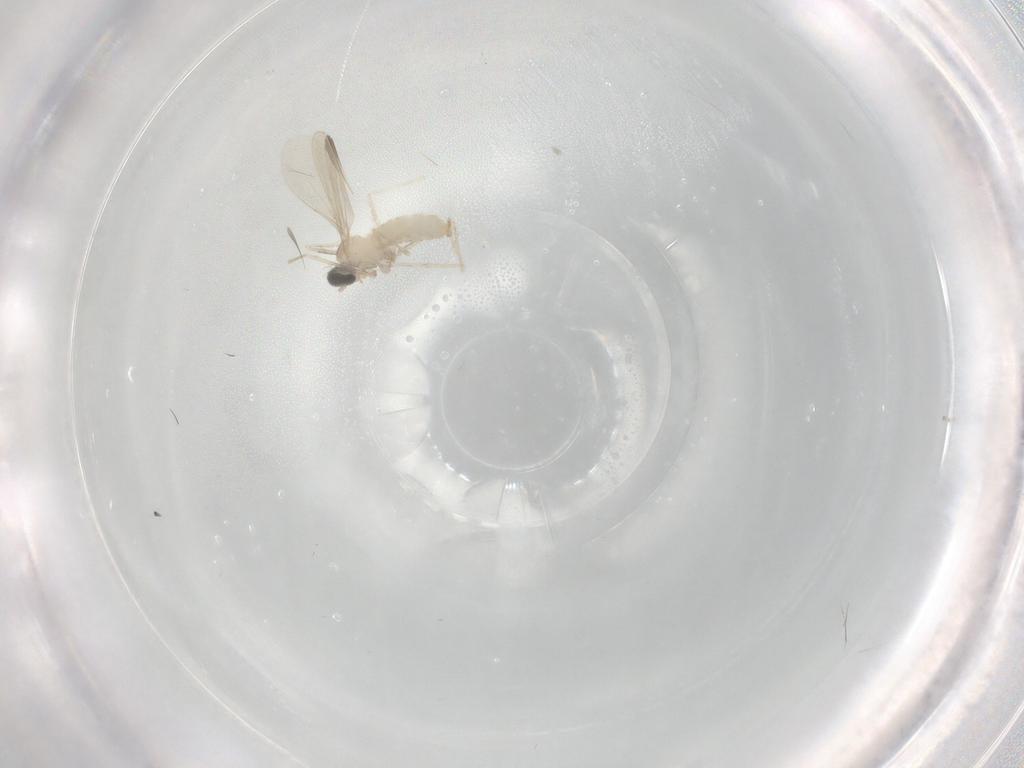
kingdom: Animalia
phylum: Arthropoda
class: Insecta
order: Diptera
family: Cecidomyiidae
